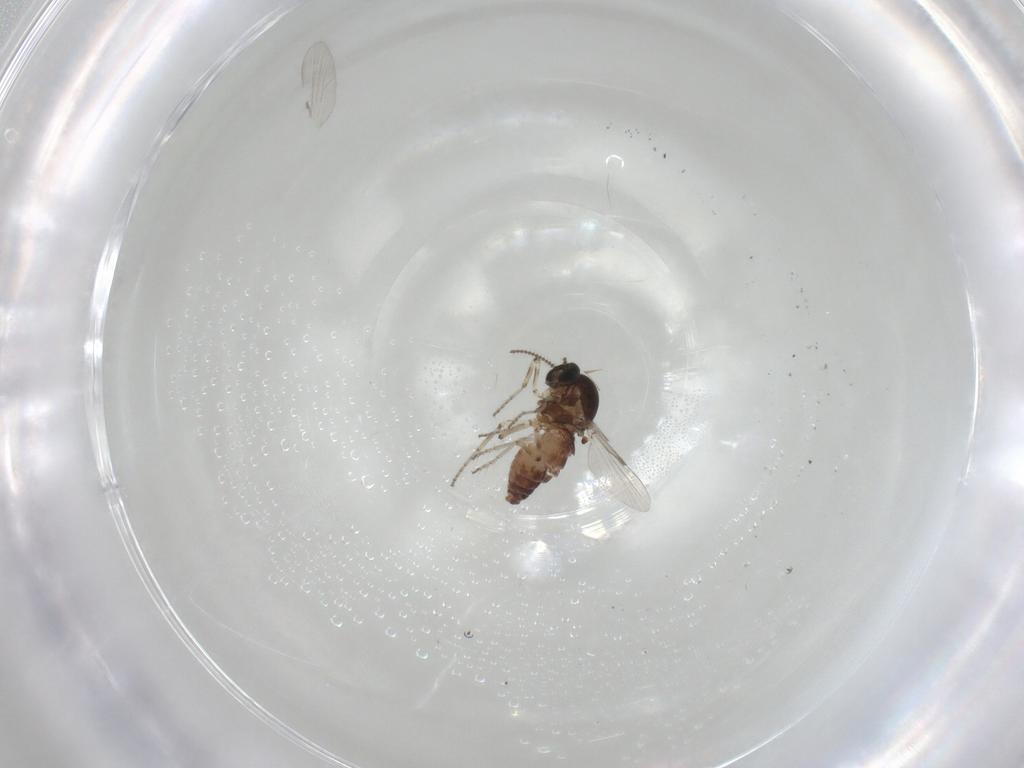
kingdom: Animalia
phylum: Arthropoda
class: Insecta
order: Diptera
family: Ceratopogonidae
